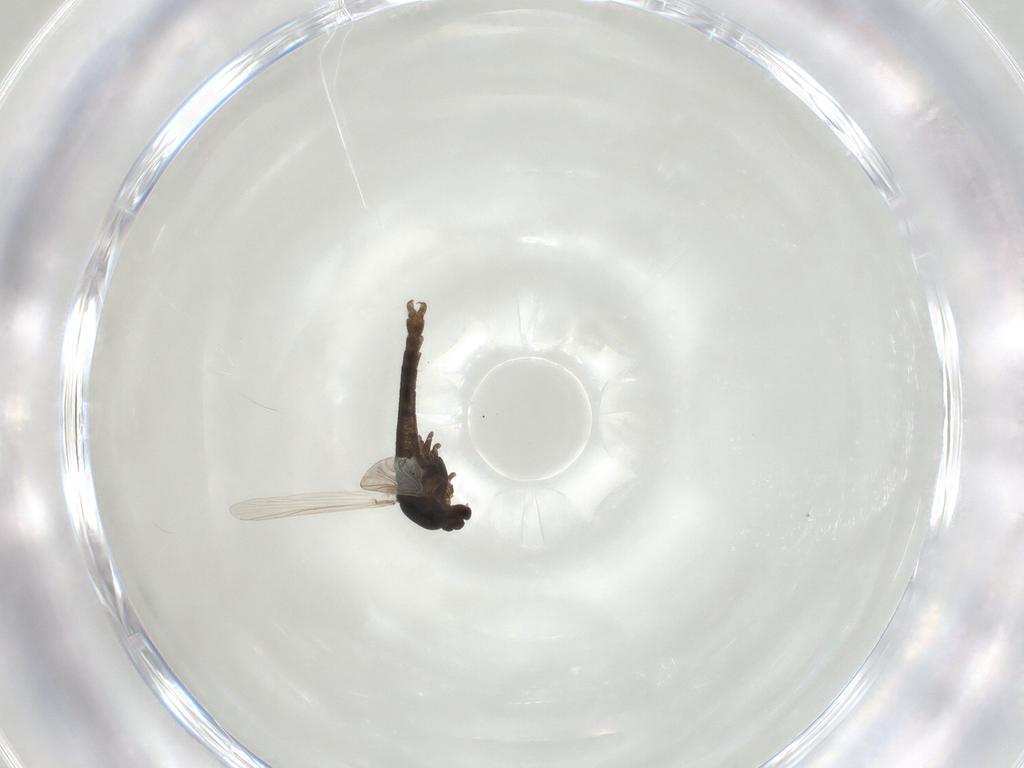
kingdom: Animalia
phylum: Arthropoda
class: Insecta
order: Diptera
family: Chironomidae
